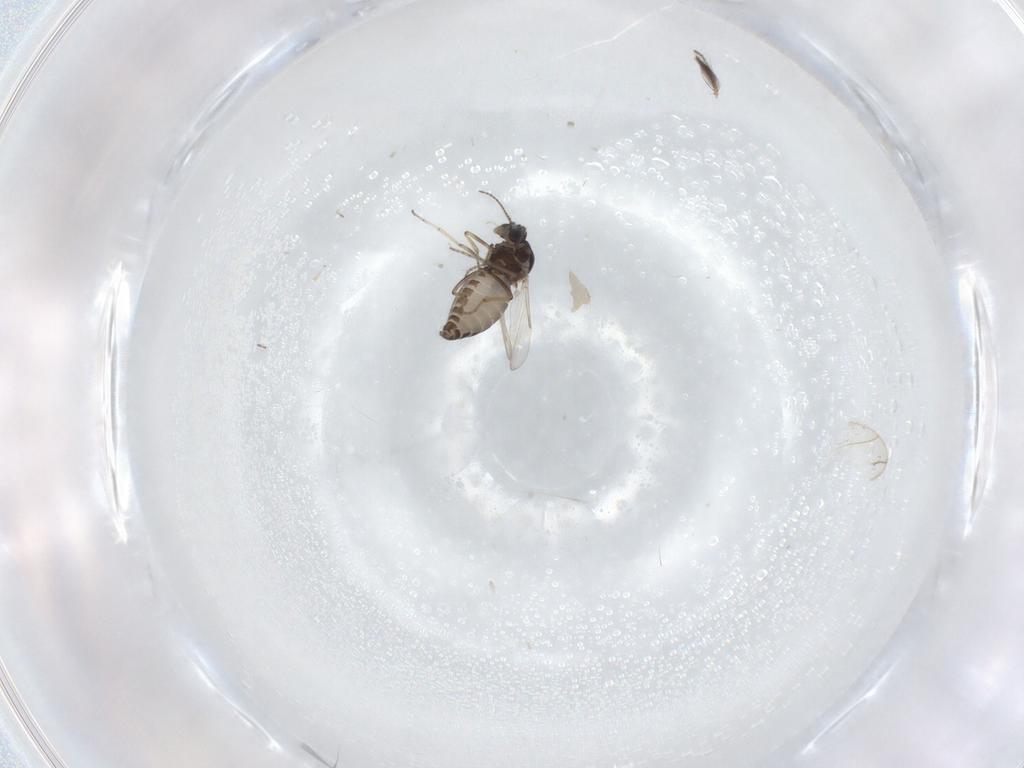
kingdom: Animalia
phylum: Arthropoda
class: Insecta
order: Diptera
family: Ceratopogonidae
